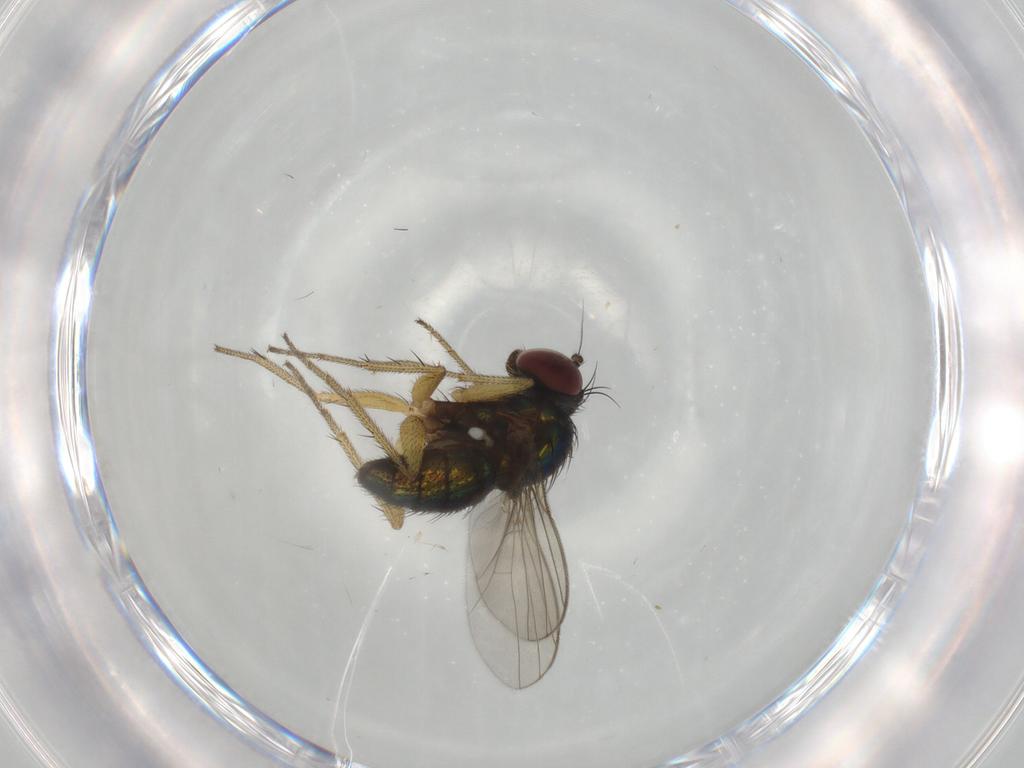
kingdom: Animalia
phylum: Arthropoda
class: Insecta
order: Diptera
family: Dolichopodidae
